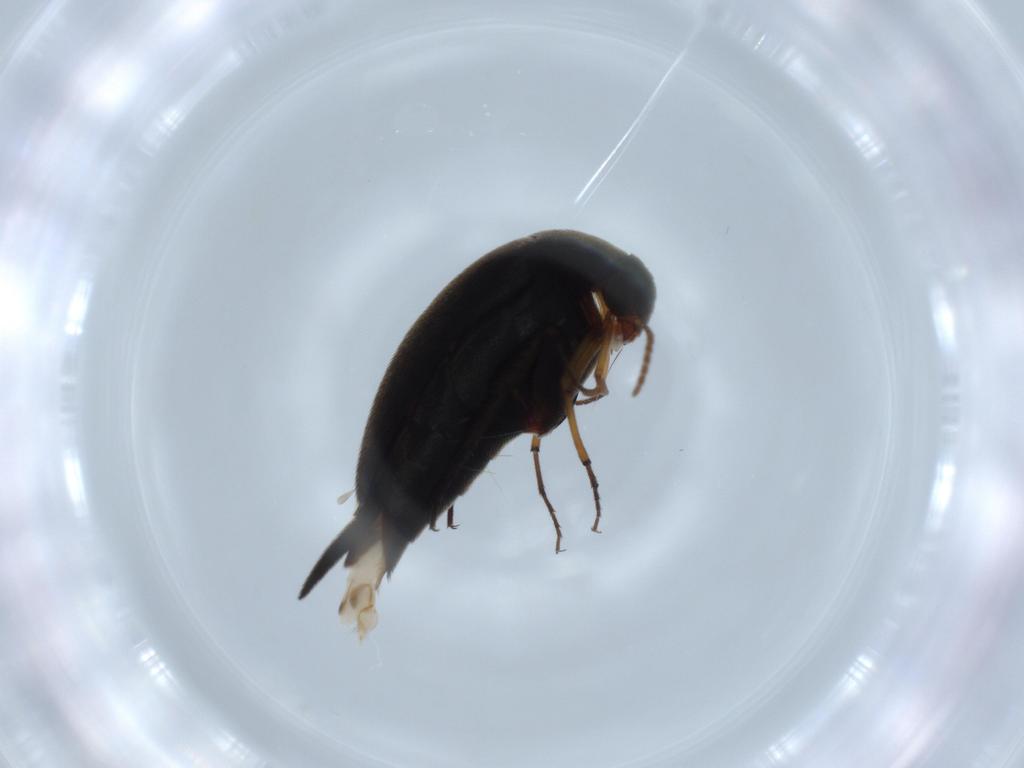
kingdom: Animalia
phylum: Arthropoda
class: Insecta
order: Coleoptera
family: Mordellidae
